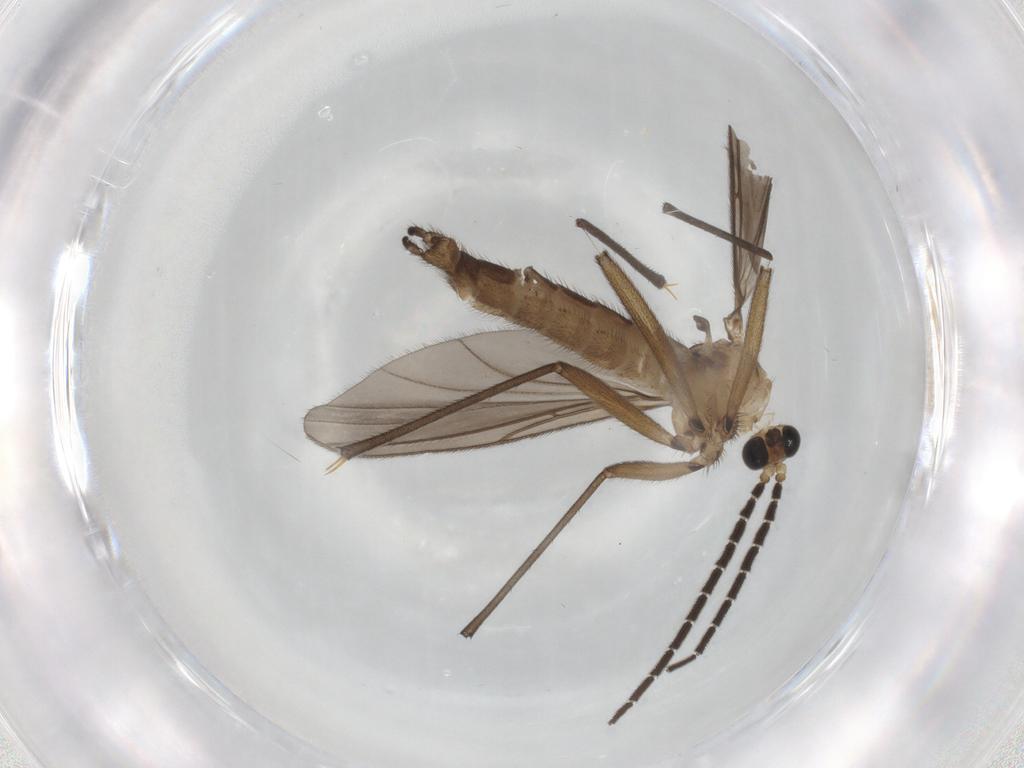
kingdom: Animalia
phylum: Arthropoda
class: Insecta
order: Diptera
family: Chironomidae
